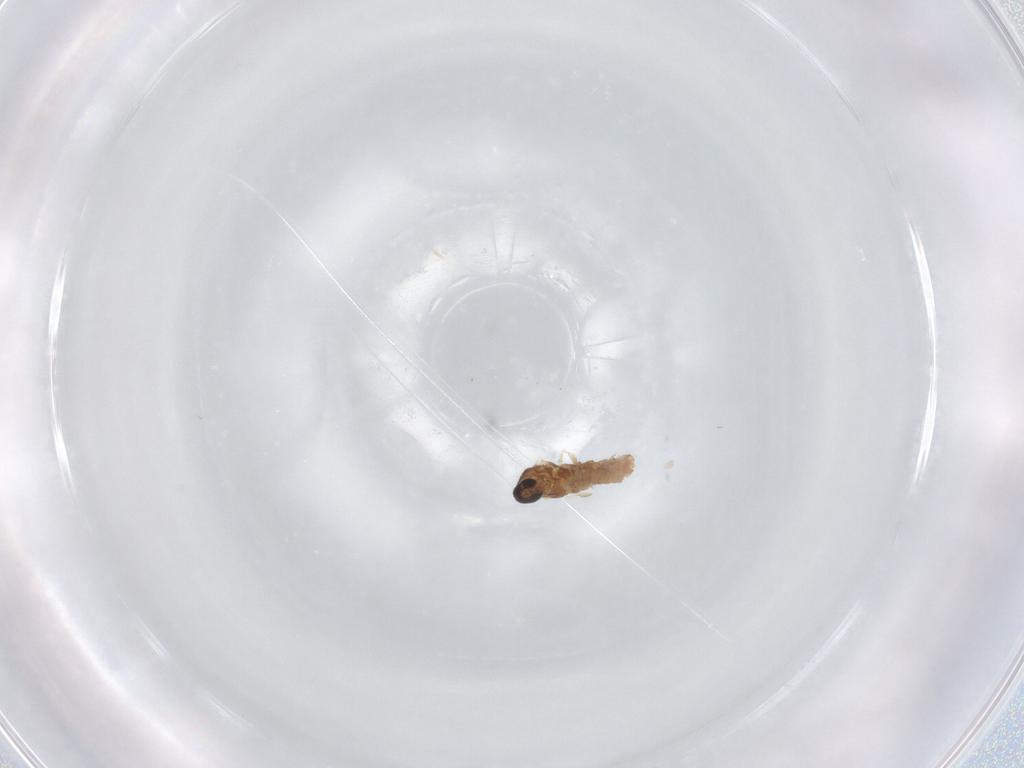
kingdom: Animalia
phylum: Arthropoda
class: Insecta
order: Diptera
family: Cecidomyiidae
